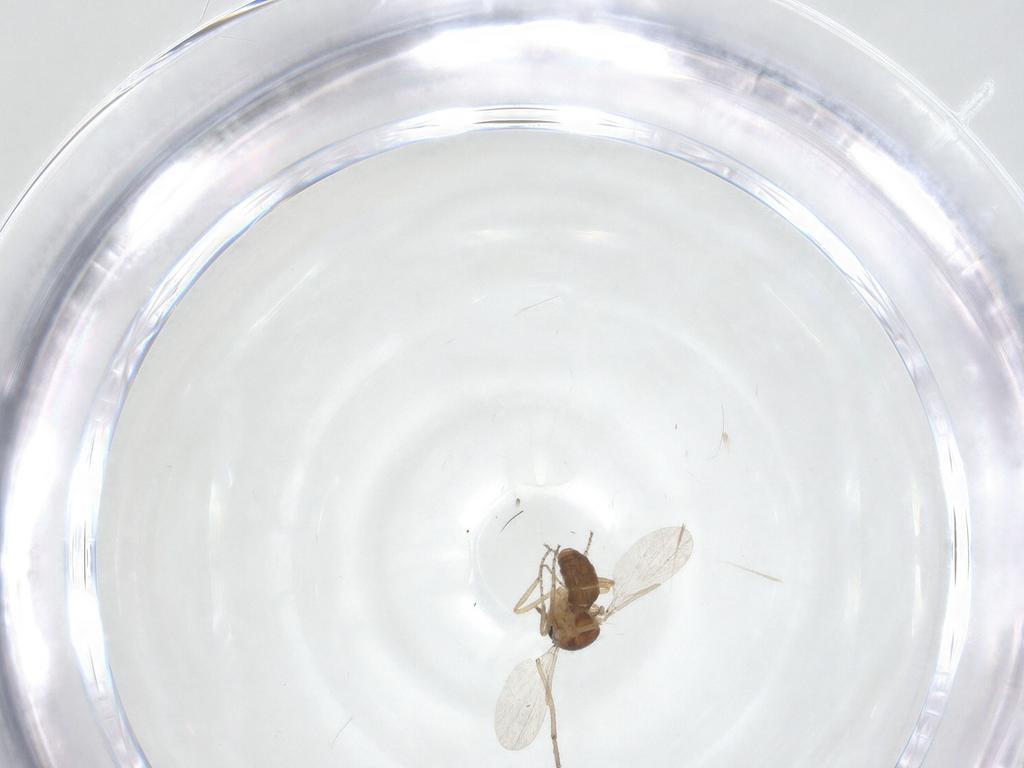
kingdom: Animalia
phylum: Arthropoda
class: Insecta
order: Diptera
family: Ceratopogonidae
